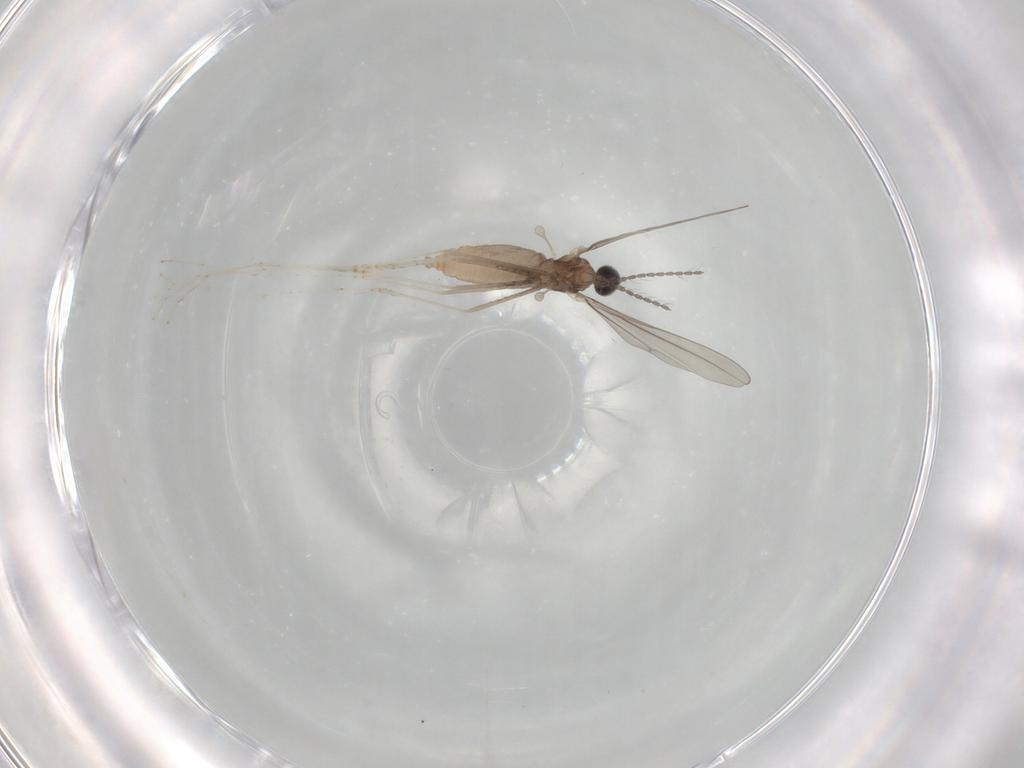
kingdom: Animalia
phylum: Arthropoda
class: Insecta
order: Diptera
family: Cecidomyiidae
